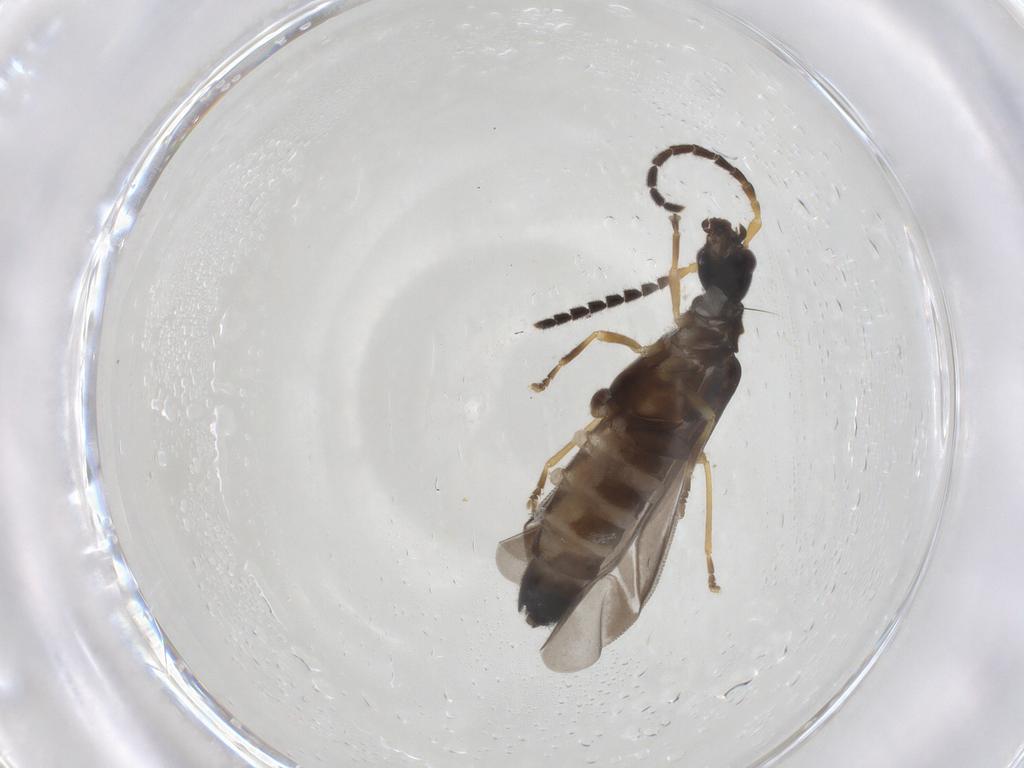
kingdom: Animalia
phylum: Arthropoda
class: Insecta
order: Coleoptera
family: Cantharidae
